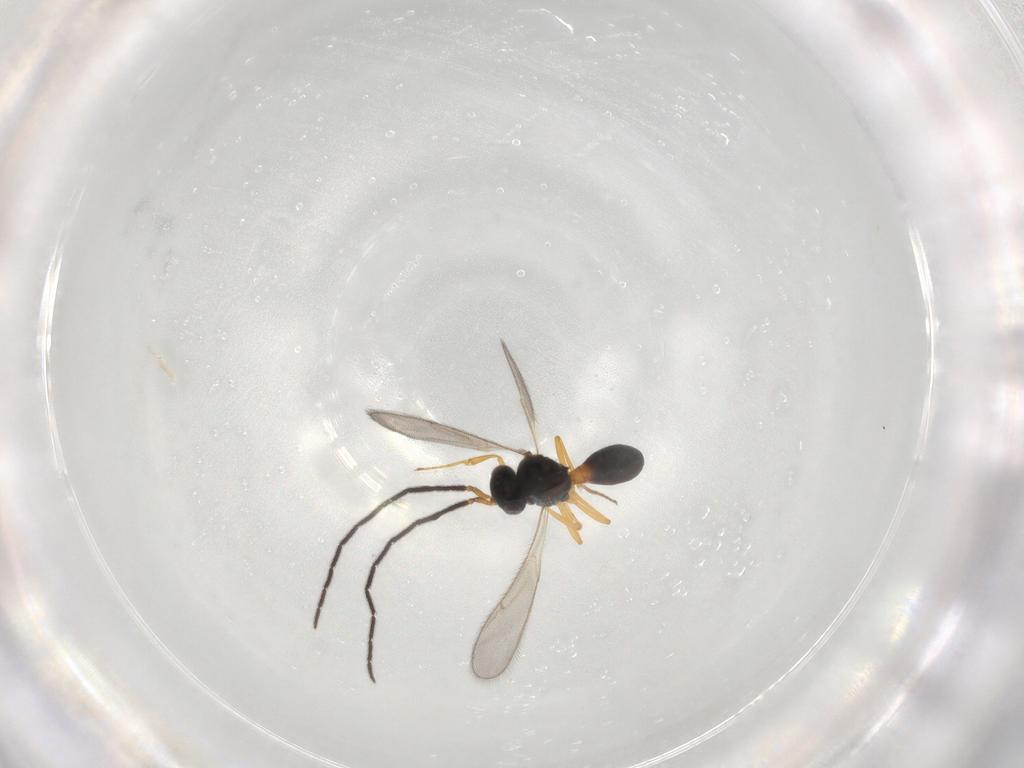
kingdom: Animalia
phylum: Arthropoda
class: Insecta
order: Hymenoptera
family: Scelionidae
